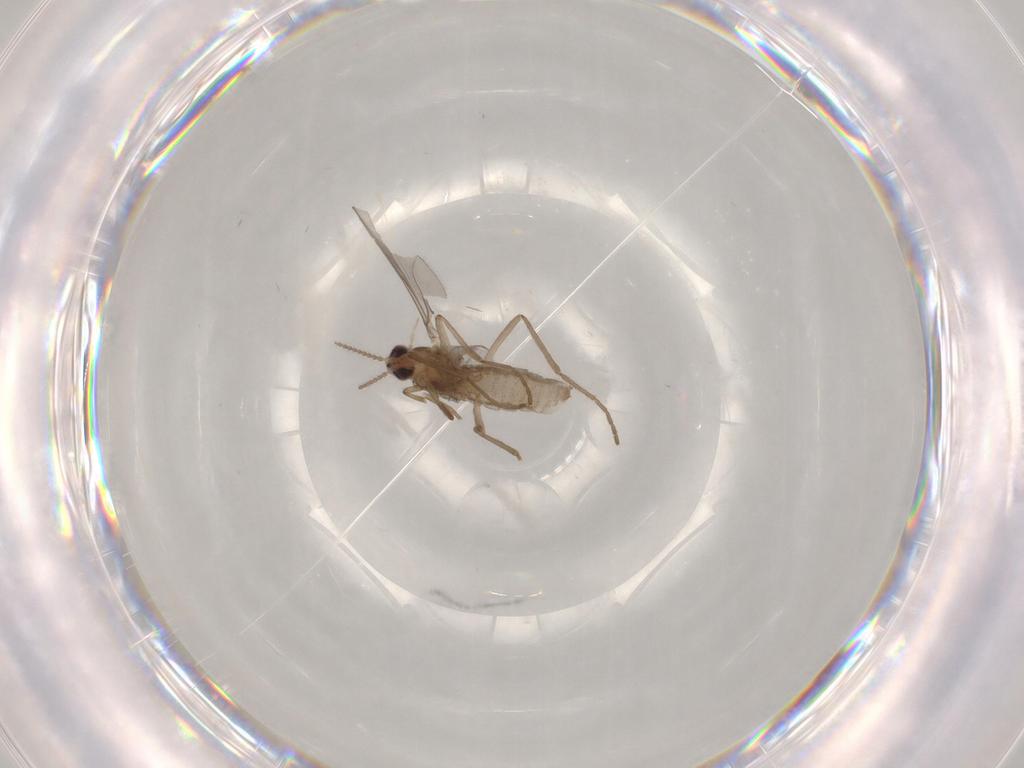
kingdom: Animalia
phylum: Arthropoda
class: Insecta
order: Diptera
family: Cecidomyiidae
